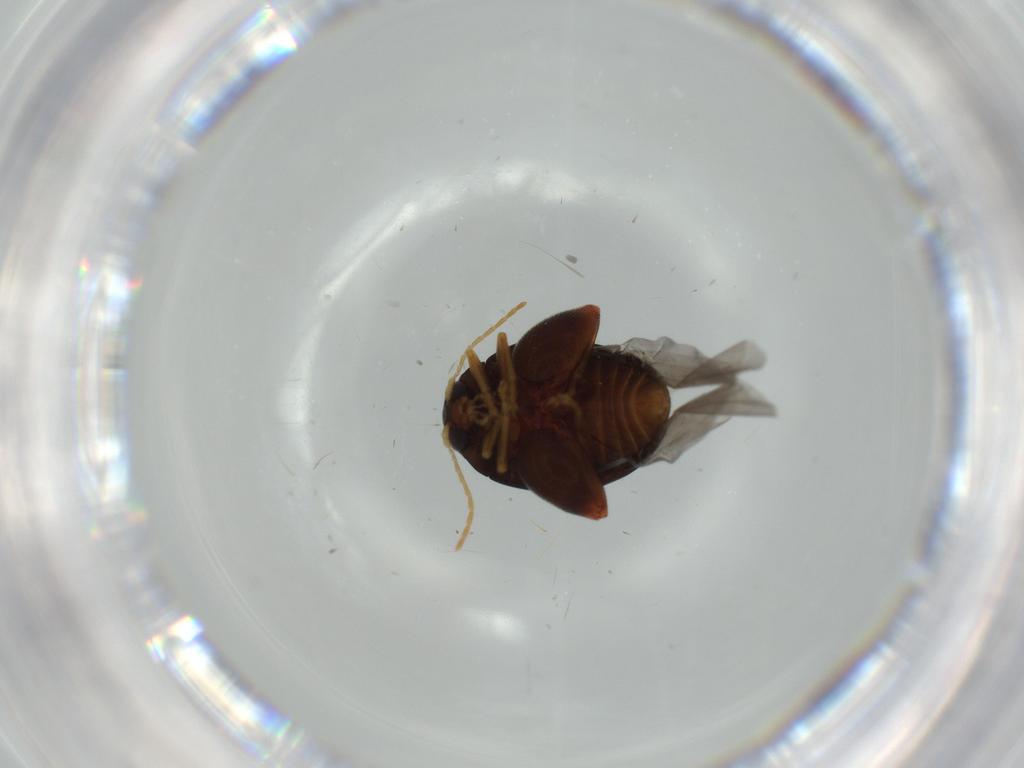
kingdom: Animalia
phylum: Arthropoda
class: Insecta
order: Coleoptera
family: Chrysomelidae
